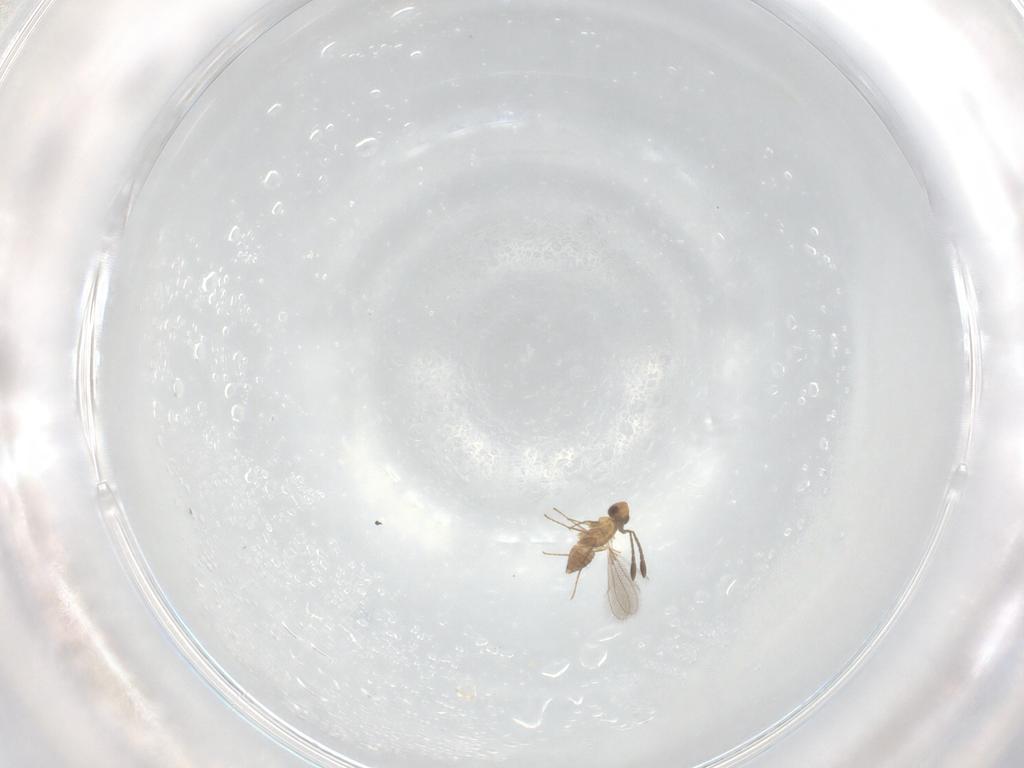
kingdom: Animalia
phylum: Arthropoda
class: Insecta
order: Hymenoptera
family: Mymaridae
